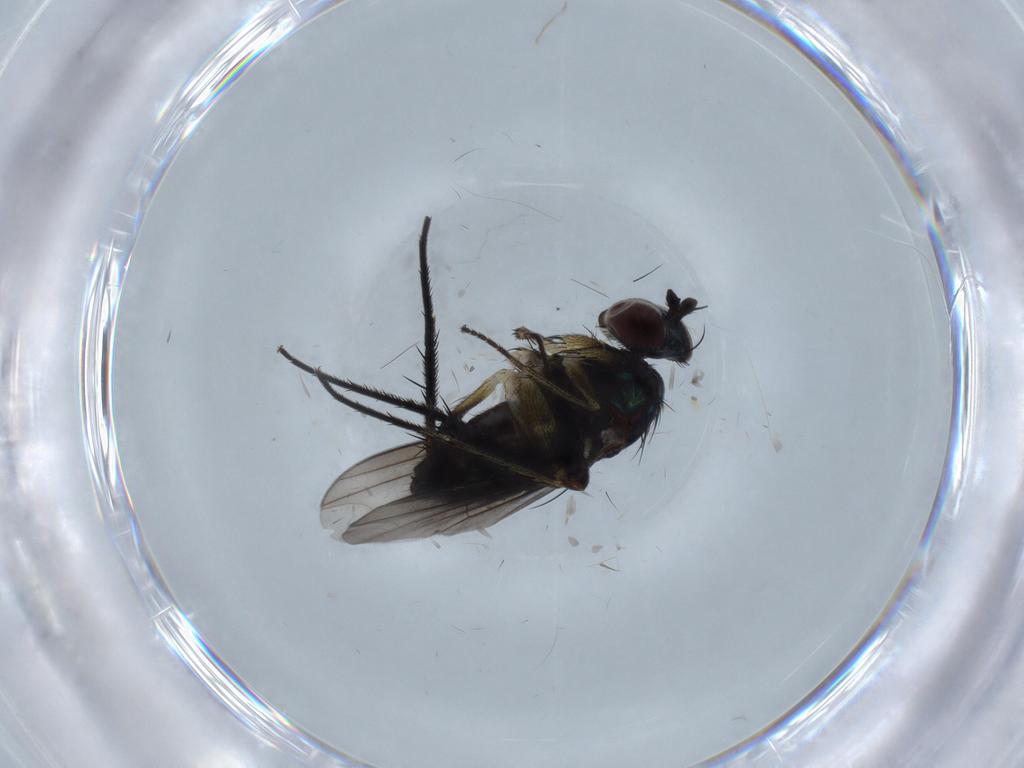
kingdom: Animalia
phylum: Arthropoda
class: Insecta
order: Diptera
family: Dolichopodidae
